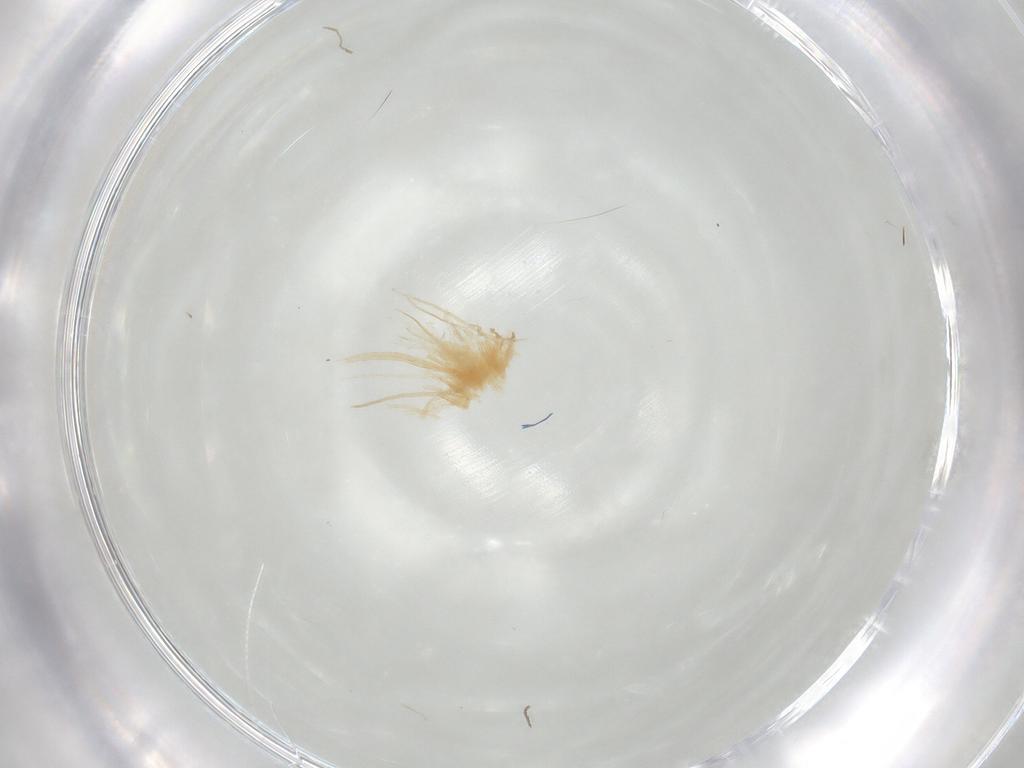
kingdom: Animalia
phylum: Arthropoda
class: Insecta
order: Diptera
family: Cecidomyiidae
